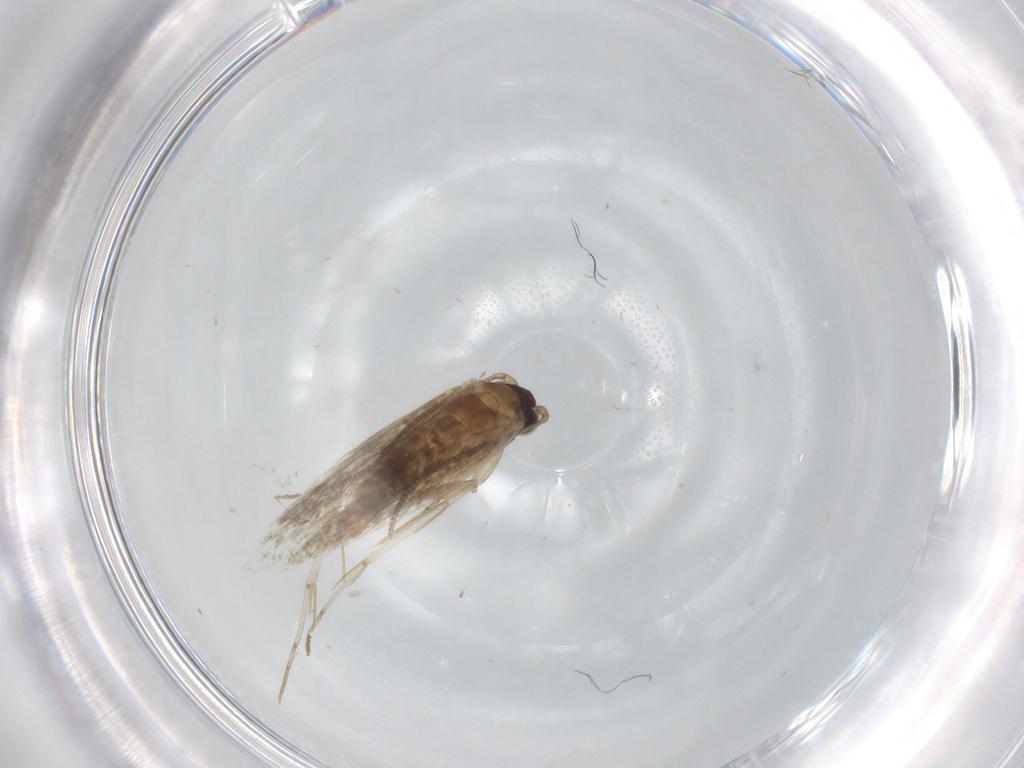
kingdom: Animalia
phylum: Arthropoda
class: Insecta
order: Lepidoptera
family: Tineidae
